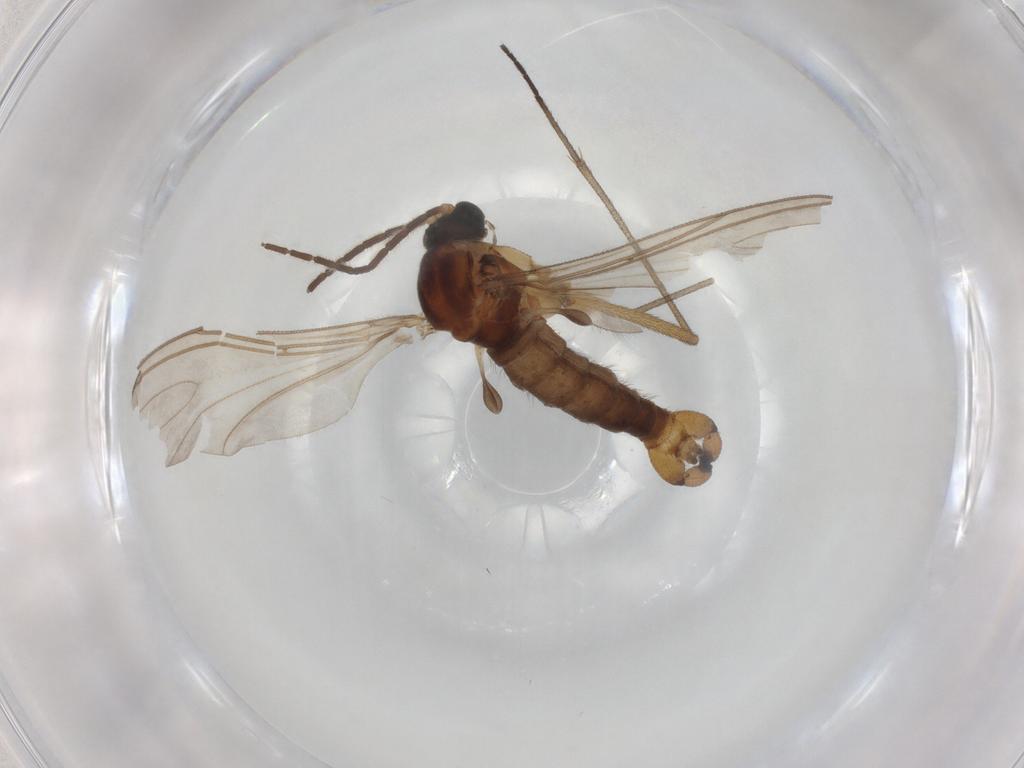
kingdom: Animalia
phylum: Arthropoda
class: Insecta
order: Diptera
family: Sciaridae
